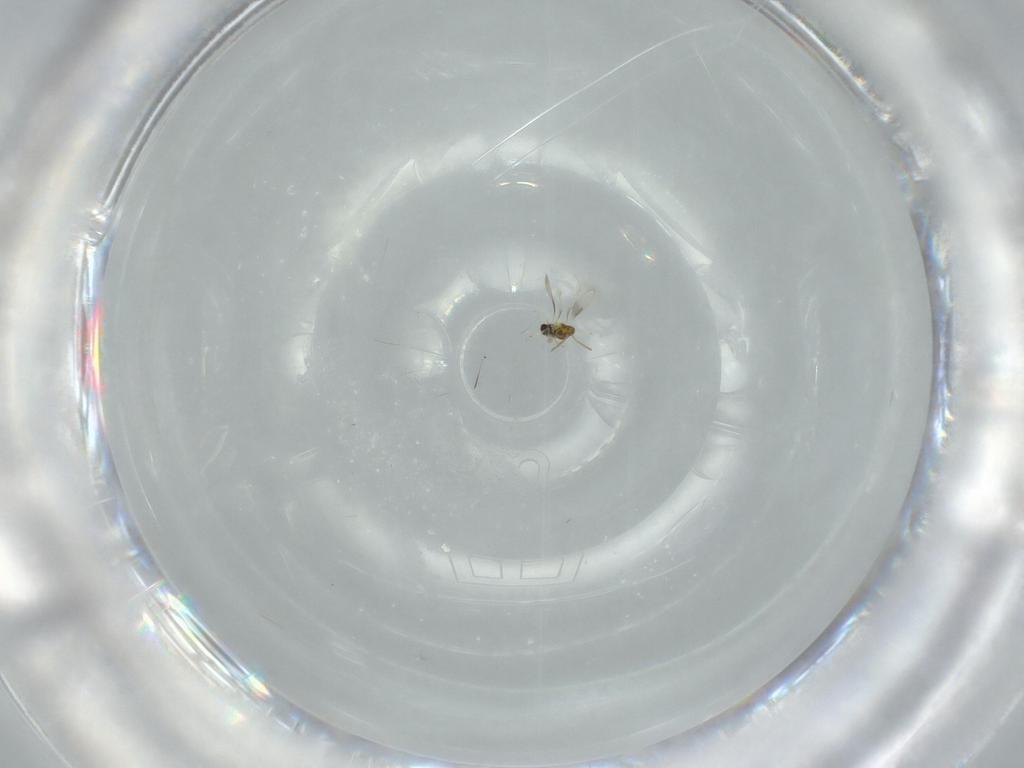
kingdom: Animalia
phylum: Arthropoda
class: Insecta
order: Hymenoptera
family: Aphelinidae
